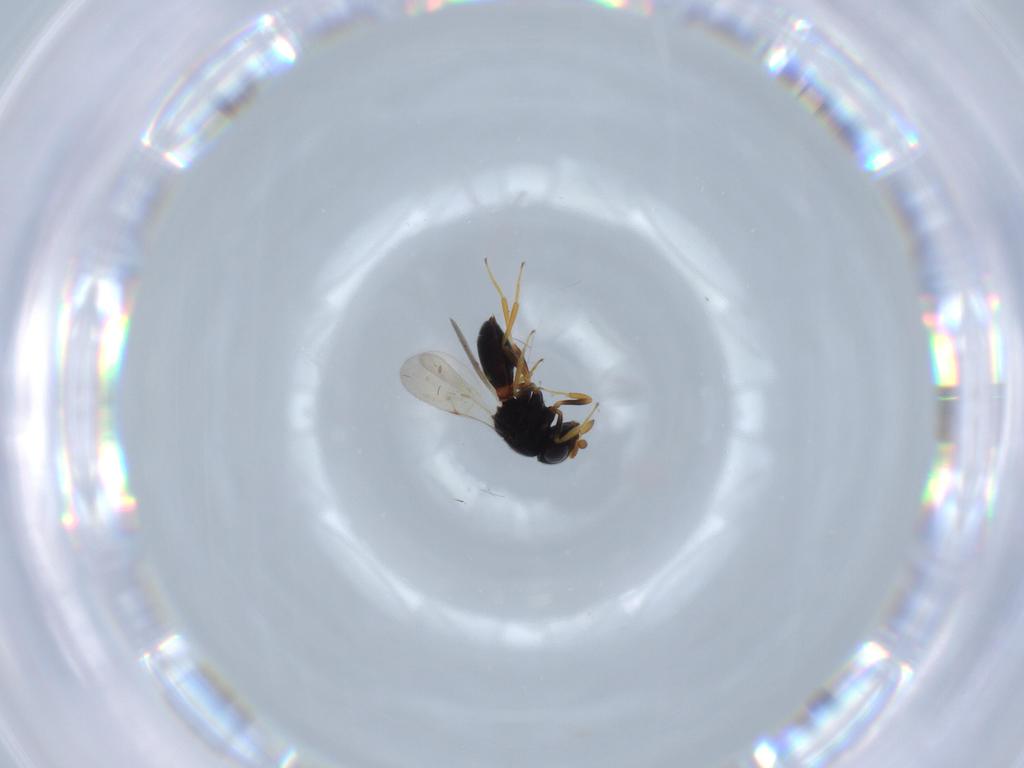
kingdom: Animalia
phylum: Arthropoda
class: Insecta
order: Hymenoptera
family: Scelionidae
